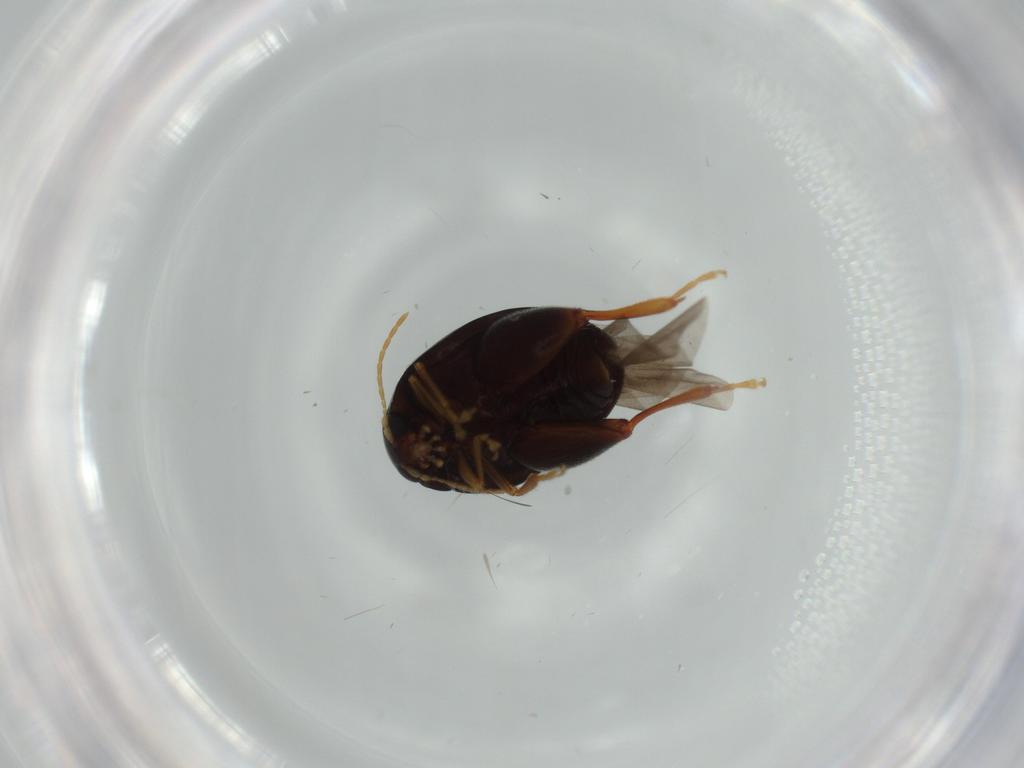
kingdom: Animalia
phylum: Arthropoda
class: Insecta
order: Coleoptera
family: Chrysomelidae
